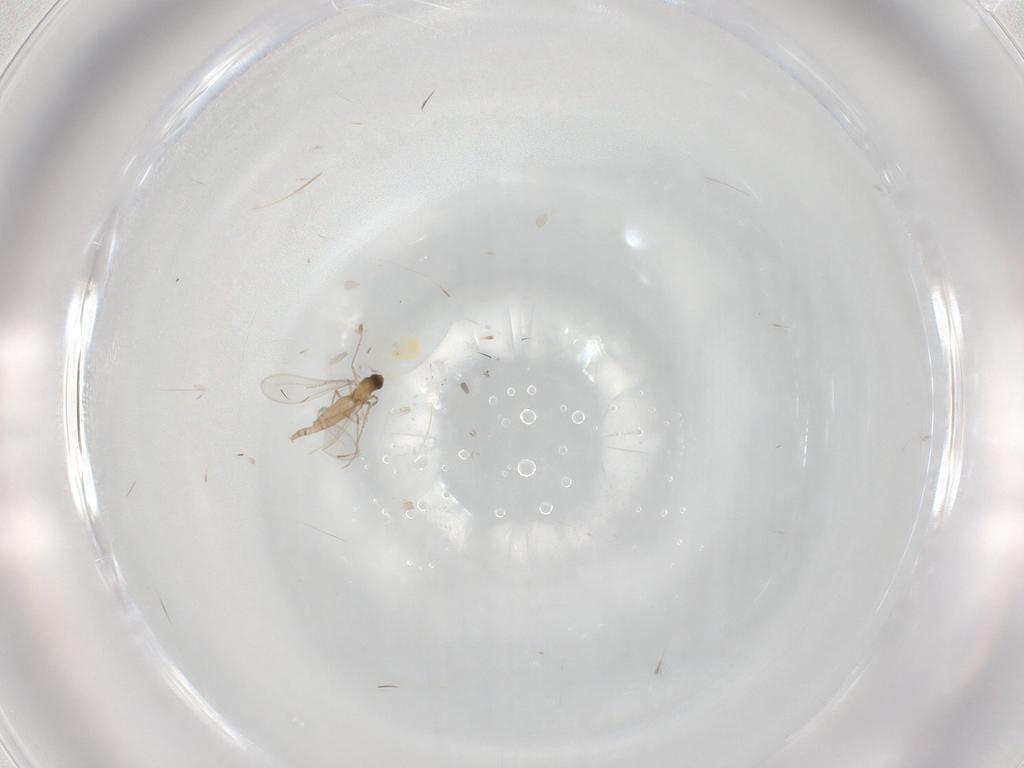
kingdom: Animalia
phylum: Arthropoda
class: Insecta
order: Diptera
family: Cecidomyiidae
